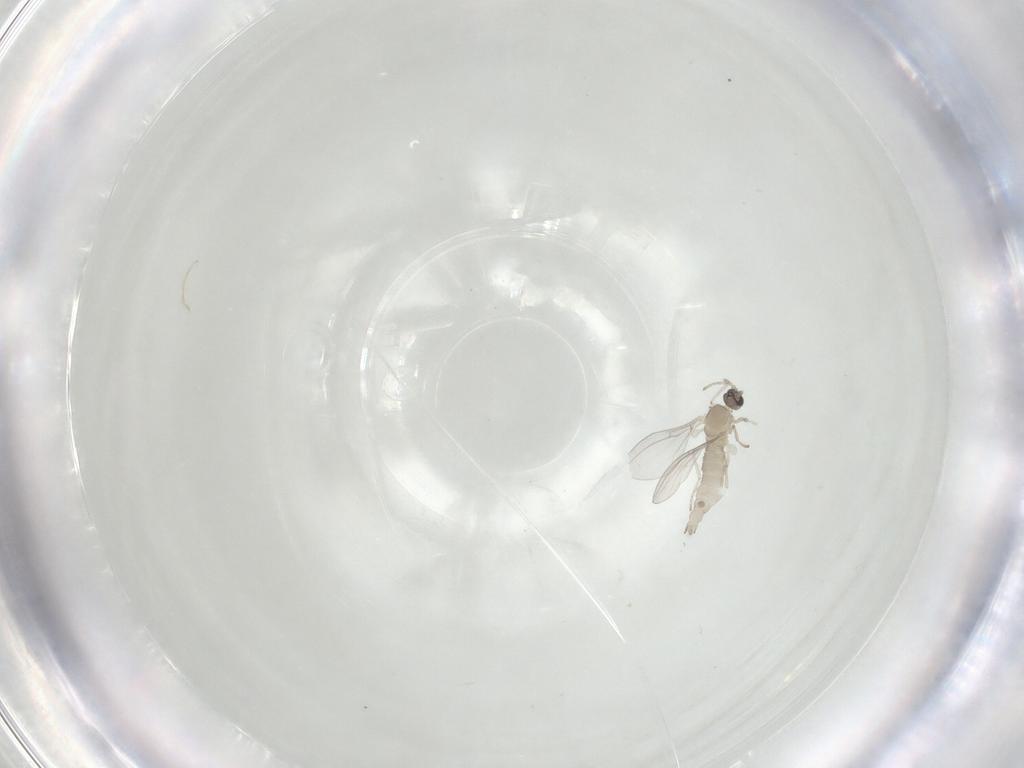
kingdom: Animalia
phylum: Arthropoda
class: Insecta
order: Diptera
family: Cecidomyiidae
